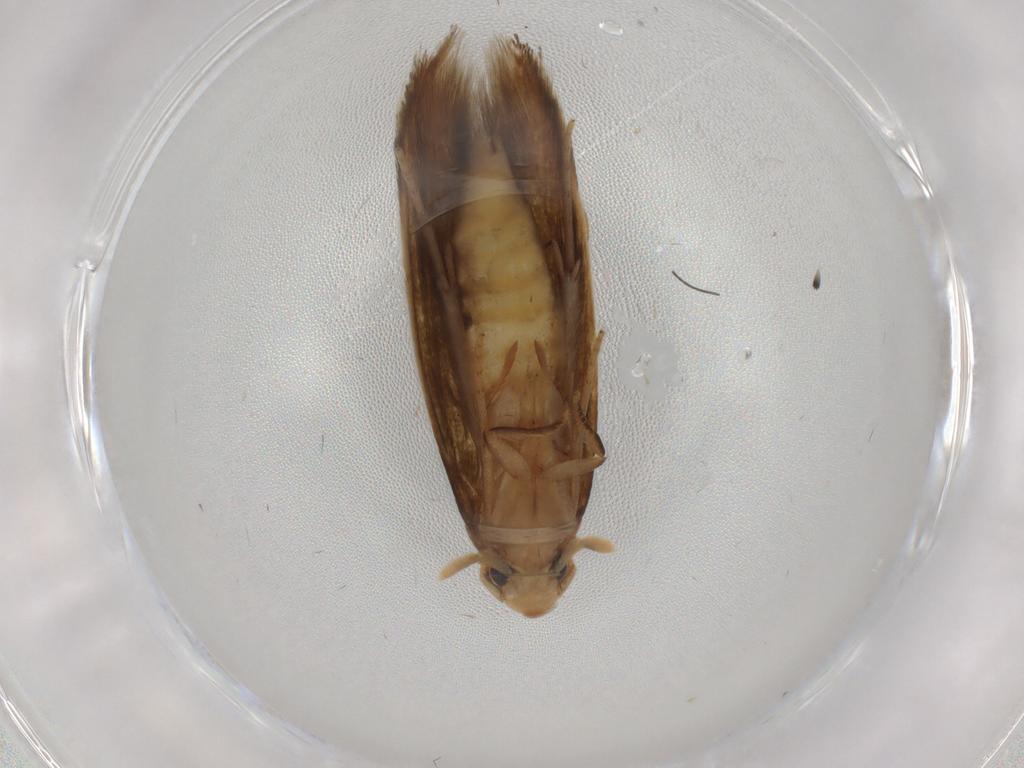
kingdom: Animalia
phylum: Arthropoda
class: Insecta
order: Lepidoptera
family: Tineidae
